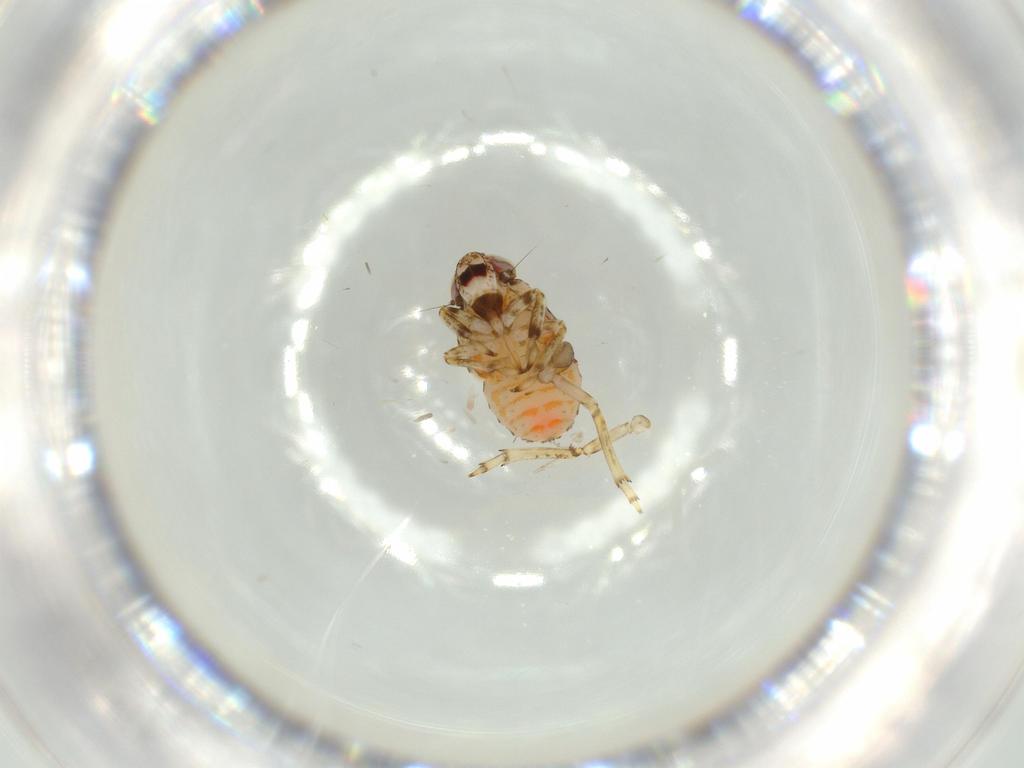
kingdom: Animalia
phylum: Arthropoda
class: Insecta
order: Hemiptera
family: Issidae
